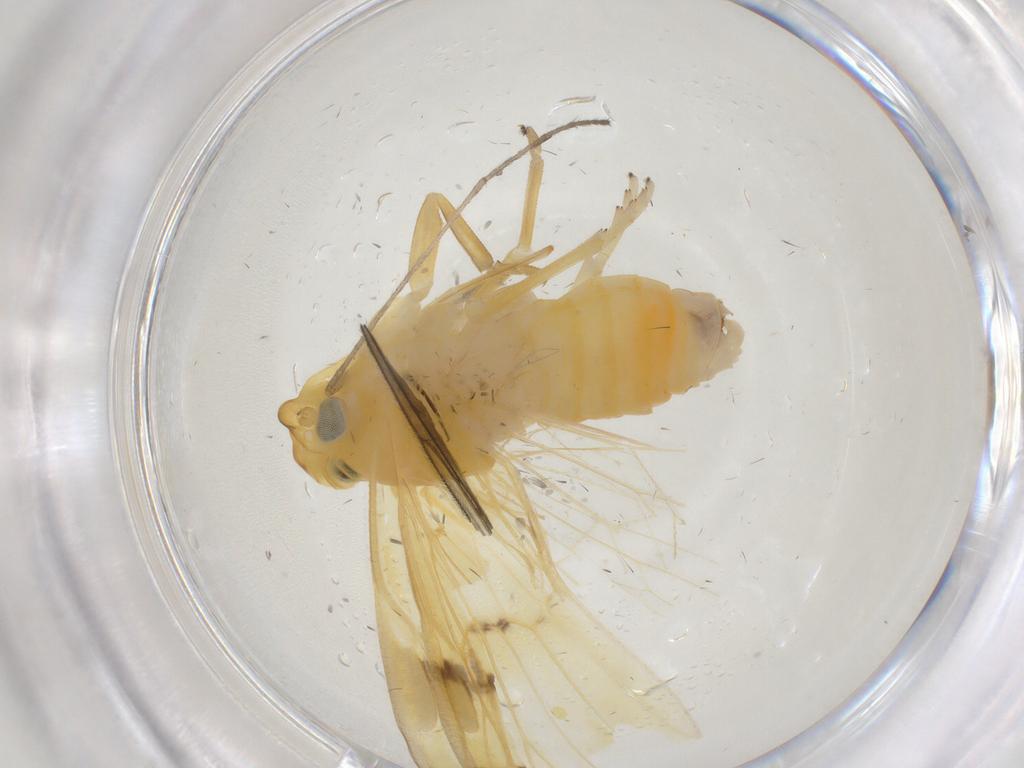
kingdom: Animalia
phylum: Arthropoda
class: Insecta
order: Hemiptera
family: Cixiidae
